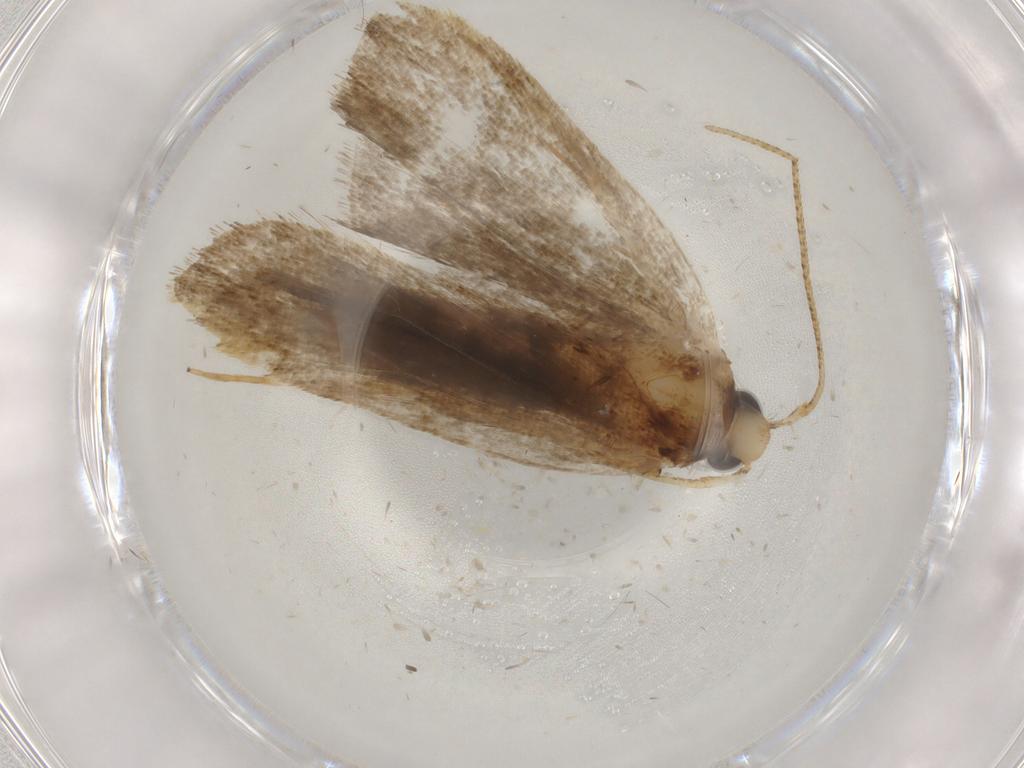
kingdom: Animalia
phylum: Arthropoda
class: Insecta
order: Lepidoptera
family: Autostichidae
